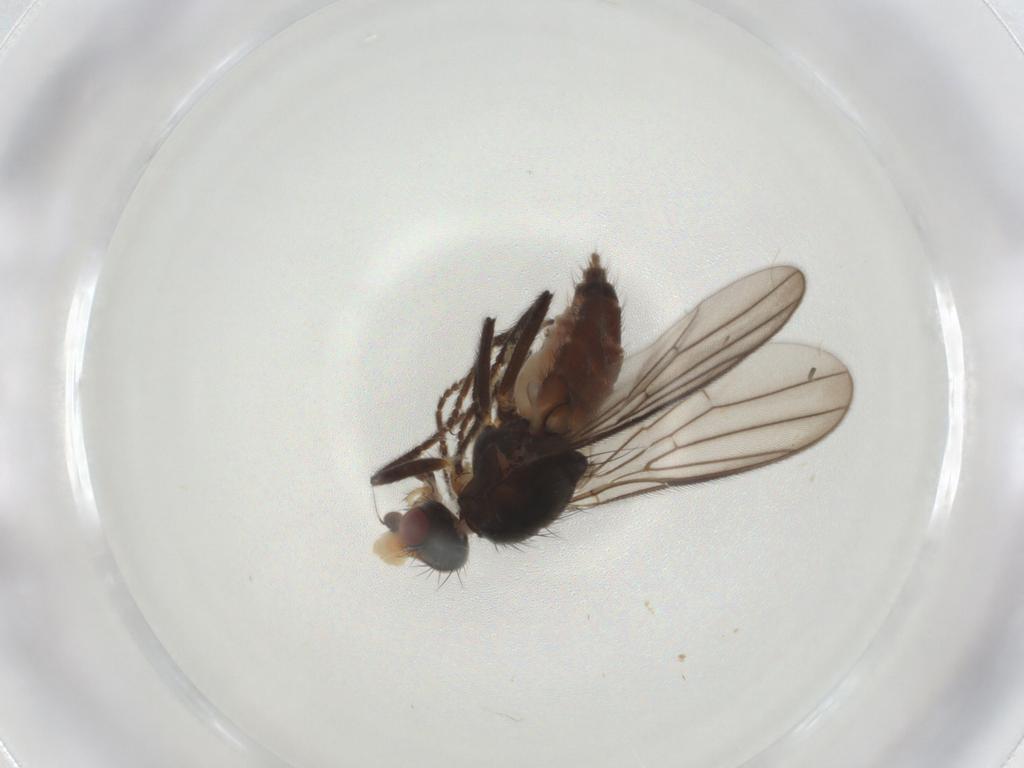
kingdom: Animalia
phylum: Arthropoda
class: Insecta
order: Diptera
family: Chloropidae
